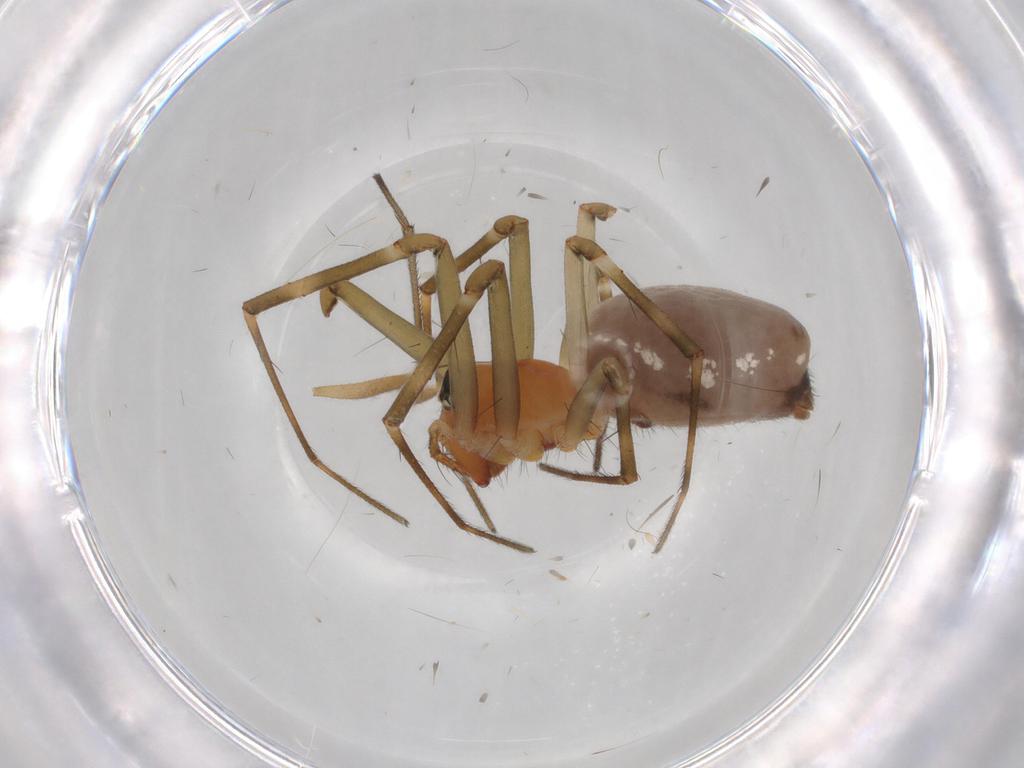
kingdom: Animalia
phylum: Arthropoda
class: Arachnida
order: Araneae
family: Linyphiidae
